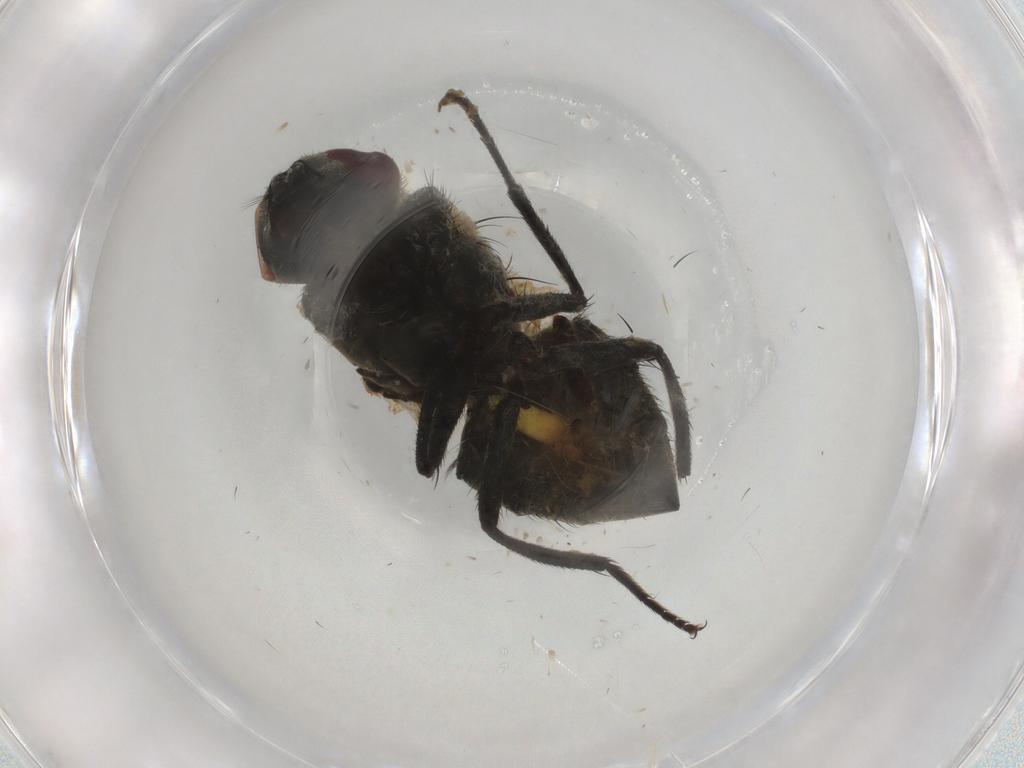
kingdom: Animalia
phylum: Arthropoda
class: Insecta
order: Diptera
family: Muscidae
